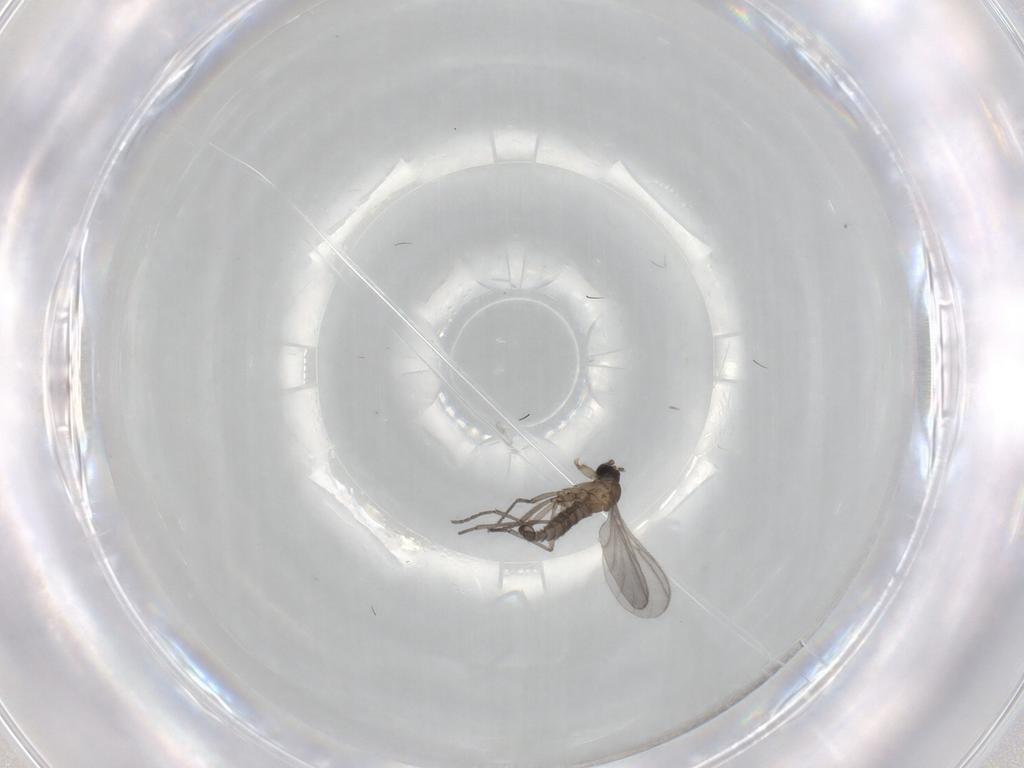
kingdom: Animalia
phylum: Arthropoda
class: Insecta
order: Diptera
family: Sciaridae
